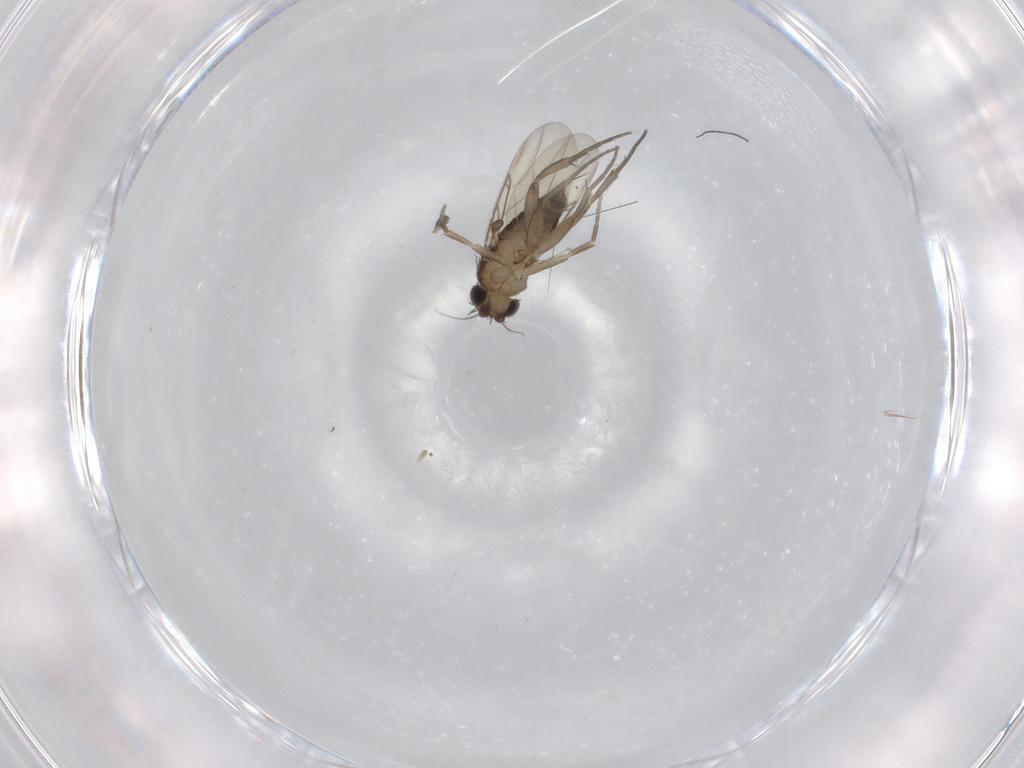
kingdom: Animalia
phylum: Arthropoda
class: Insecta
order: Diptera
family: Phoridae
